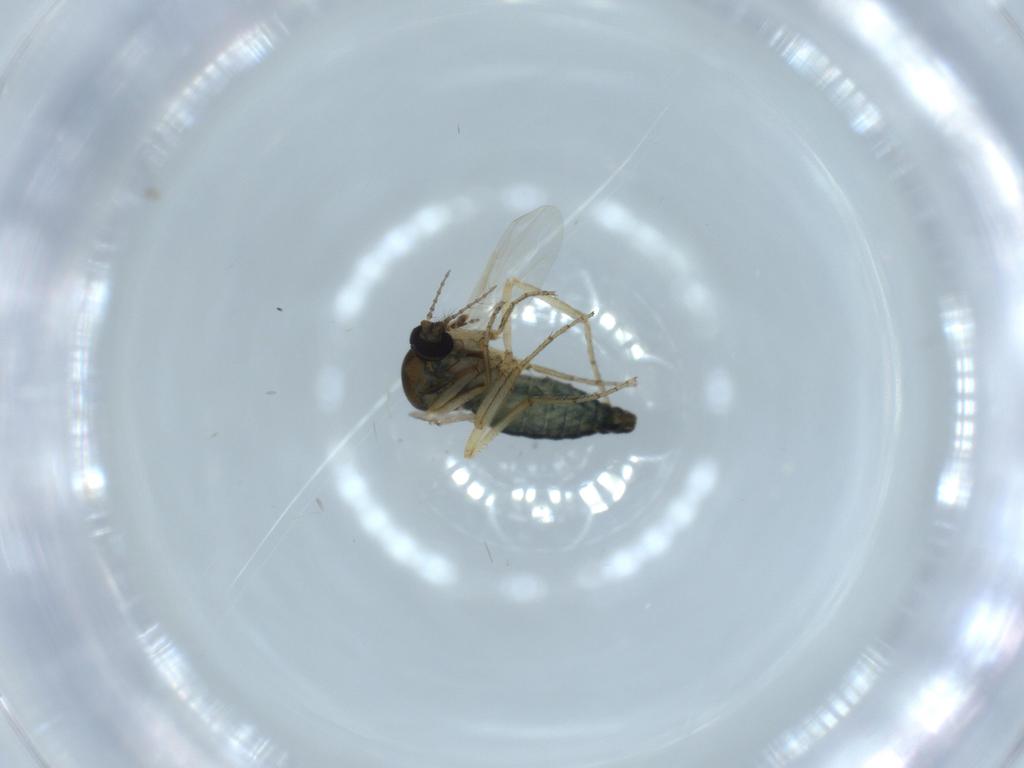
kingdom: Animalia
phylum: Arthropoda
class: Insecta
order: Diptera
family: Ceratopogonidae
